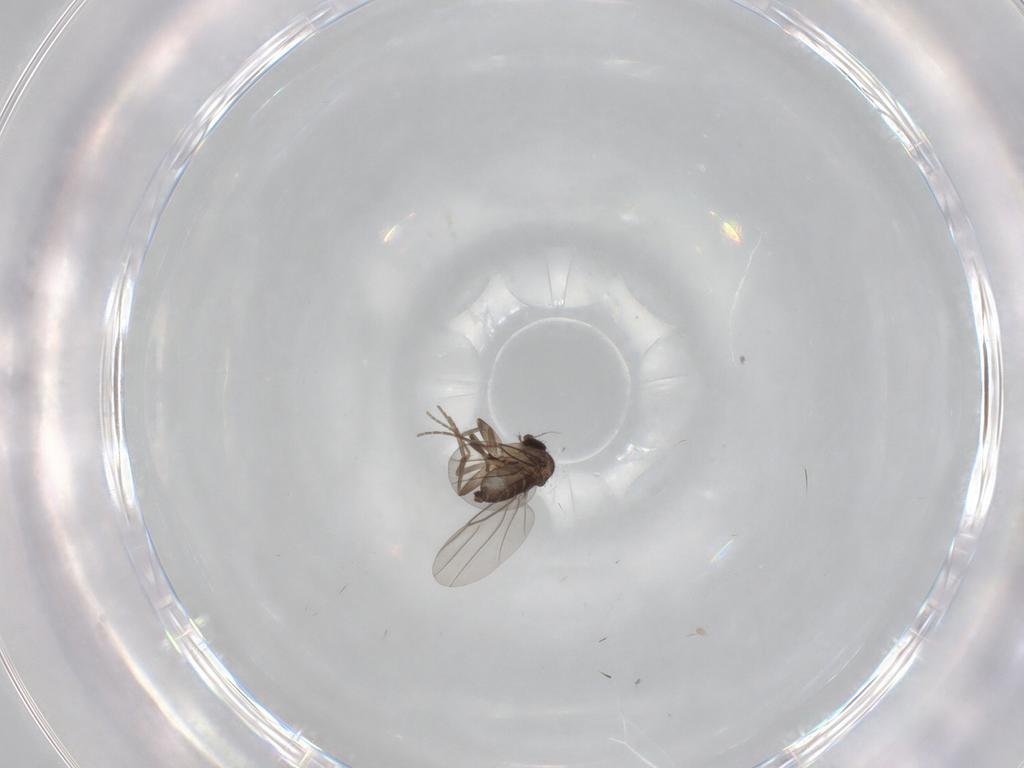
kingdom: Animalia
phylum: Arthropoda
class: Insecta
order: Diptera
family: Cecidomyiidae
